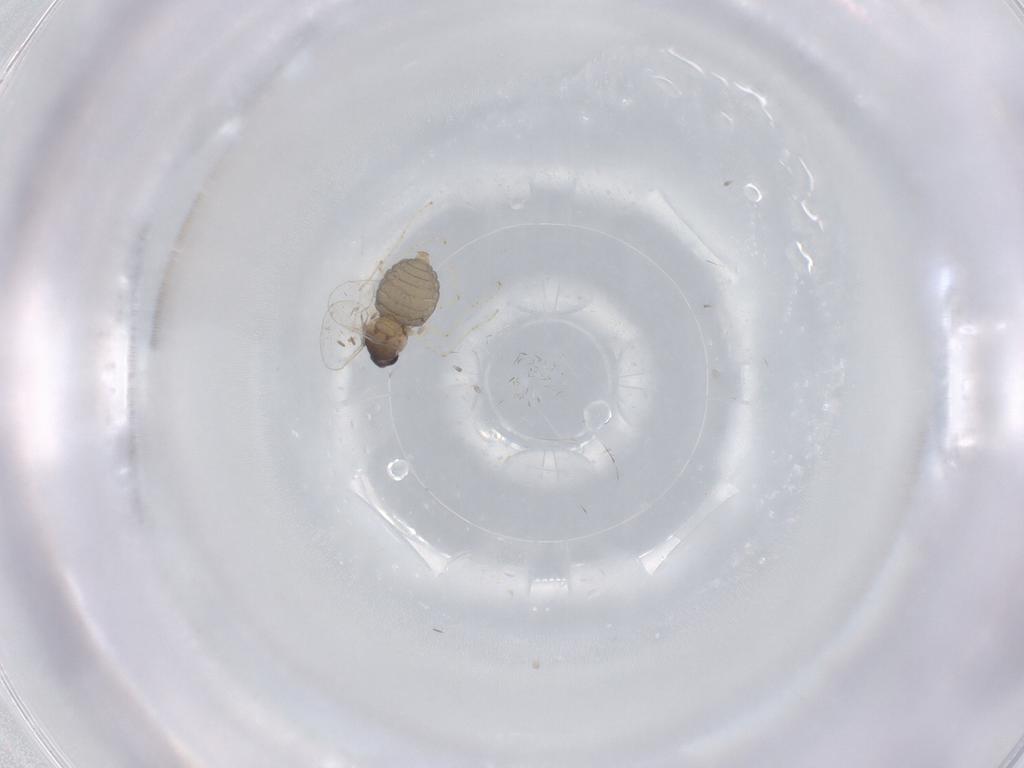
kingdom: Animalia
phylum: Arthropoda
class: Insecta
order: Diptera
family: Cecidomyiidae
